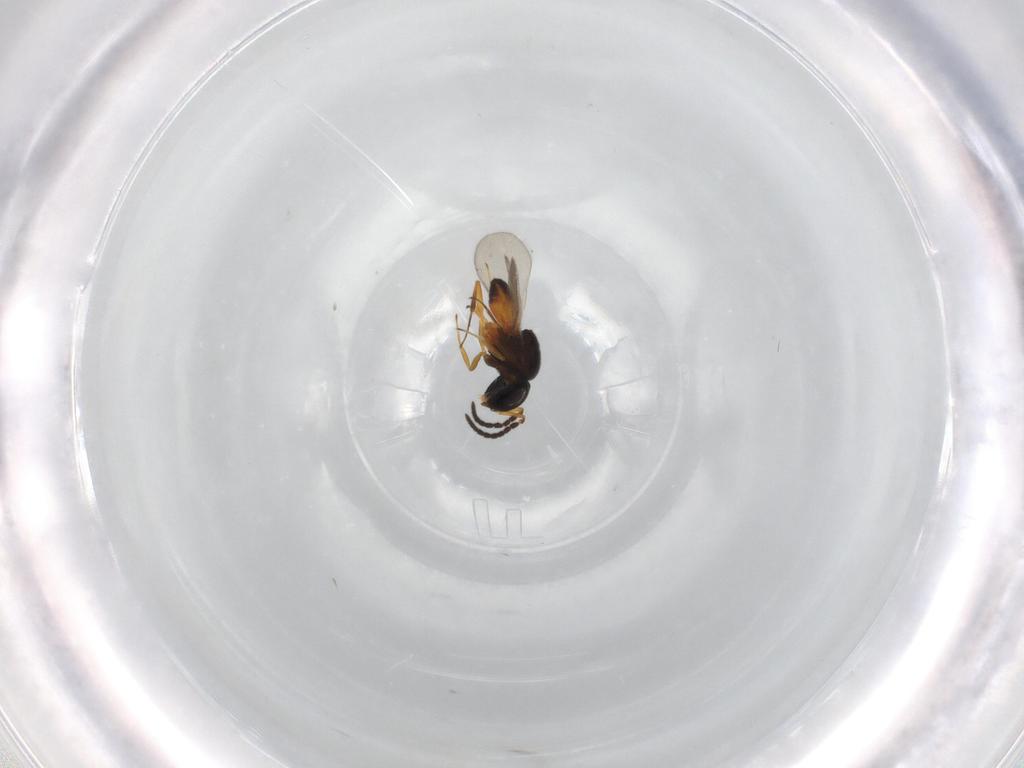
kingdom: Animalia
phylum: Arthropoda
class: Insecta
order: Hymenoptera
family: Scelionidae
